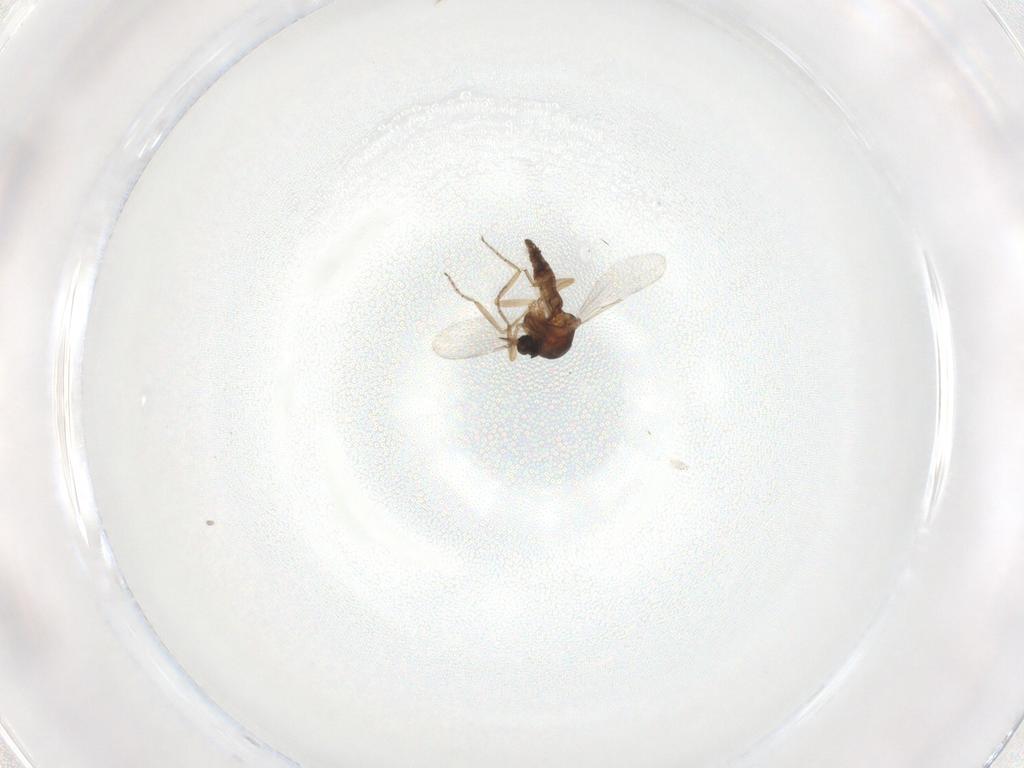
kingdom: Animalia
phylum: Arthropoda
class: Insecta
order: Diptera
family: Ceratopogonidae
